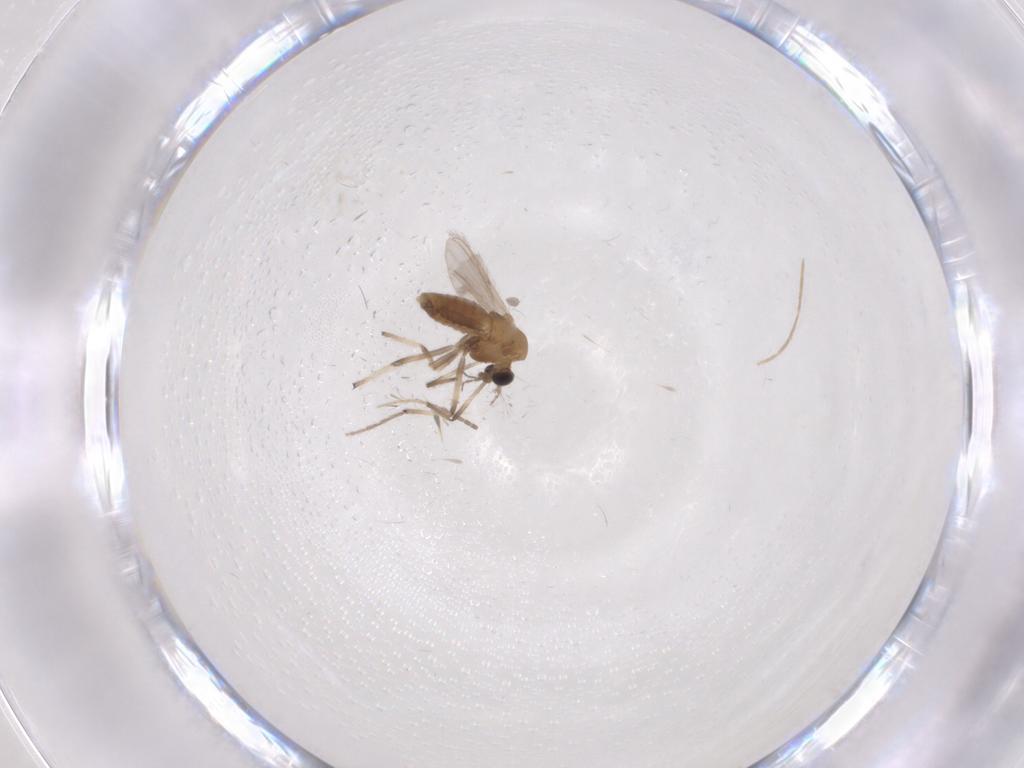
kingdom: Animalia
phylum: Arthropoda
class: Insecta
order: Diptera
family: Chironomidae
